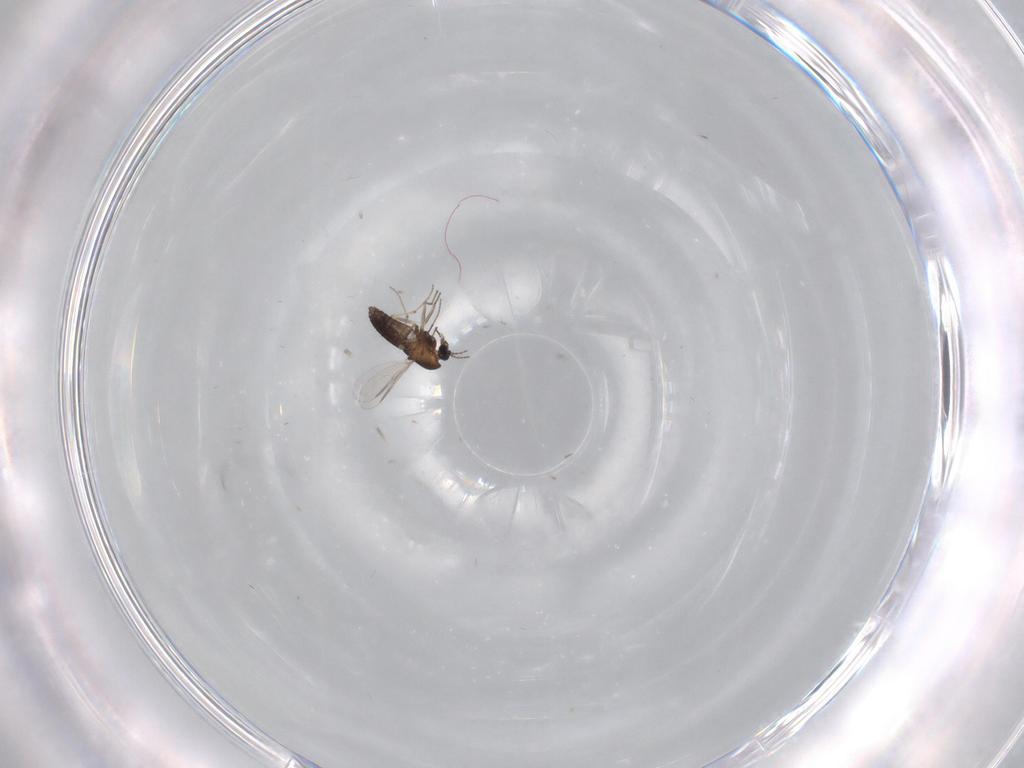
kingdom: Animalia
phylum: Arthropoda
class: Insecta
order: Diptera
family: Chironomidae
